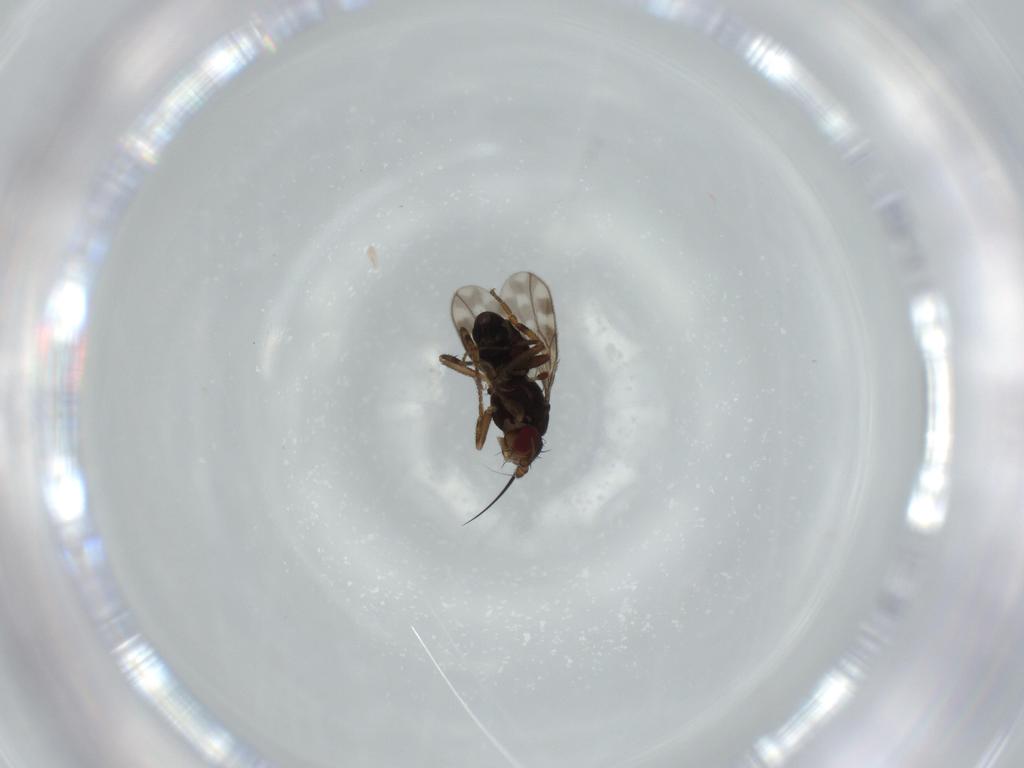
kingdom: Animalia
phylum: Arthropoda
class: Insecta
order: Diptera
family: Sphaeroceridae
